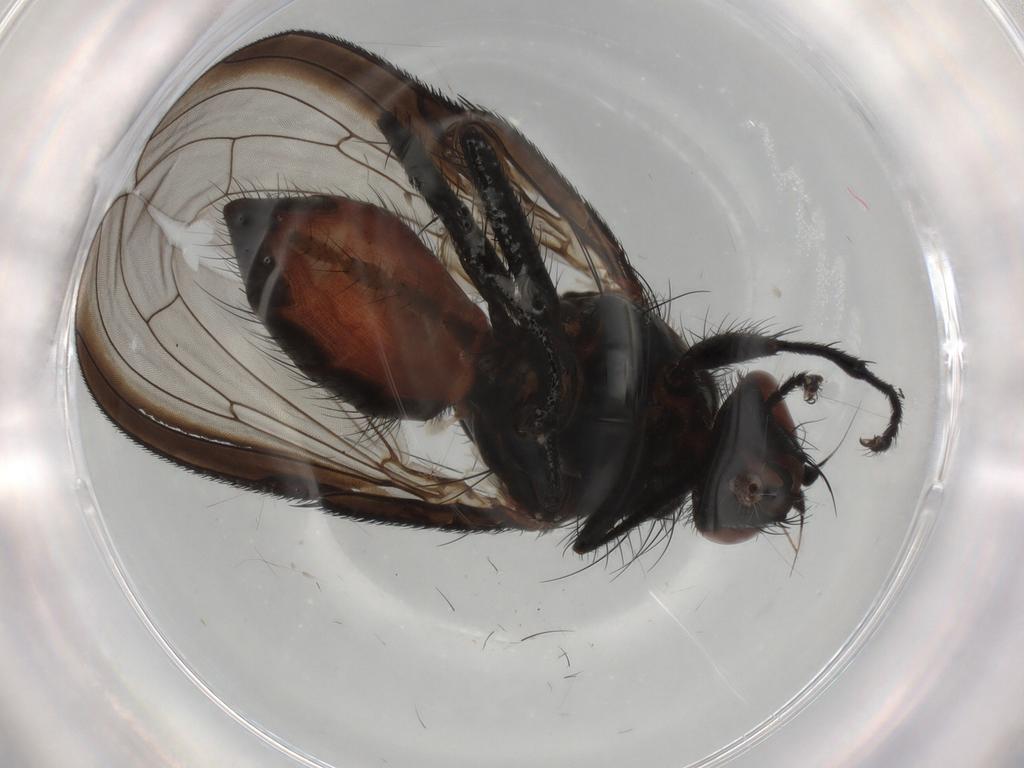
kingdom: Animalia
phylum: Arthropoda
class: Insecta
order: Diptera
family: Anthomyiidae
